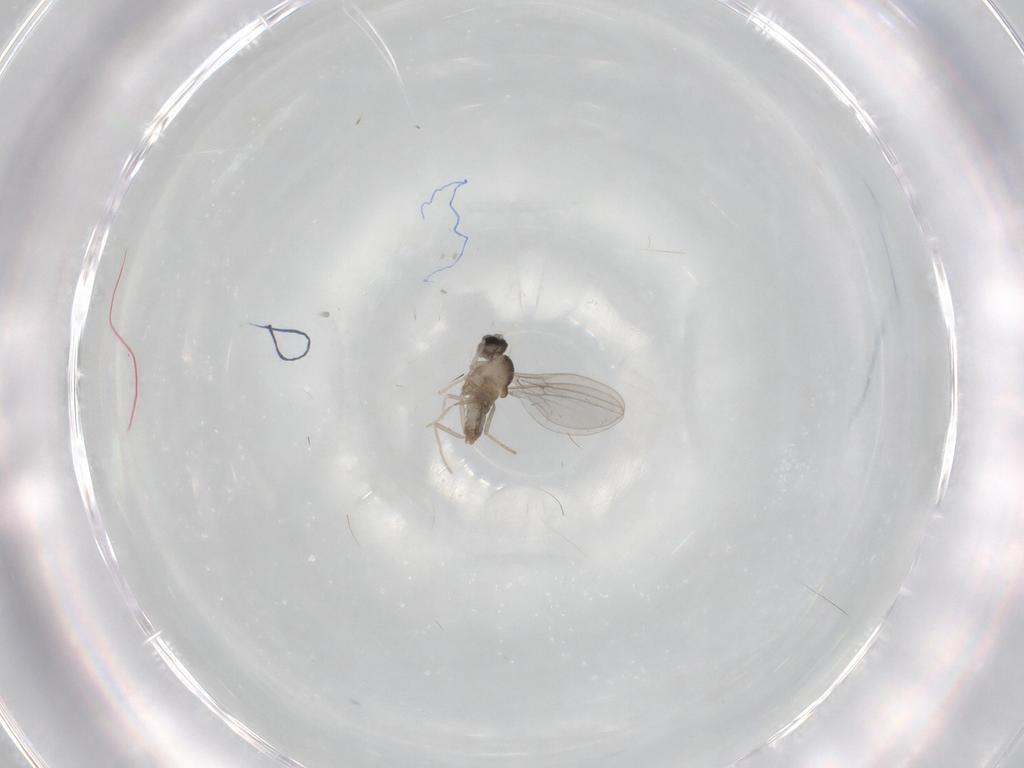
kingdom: Animalia
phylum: Arthropoda
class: Insecta
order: Diptera
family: Cecidomyiidae
